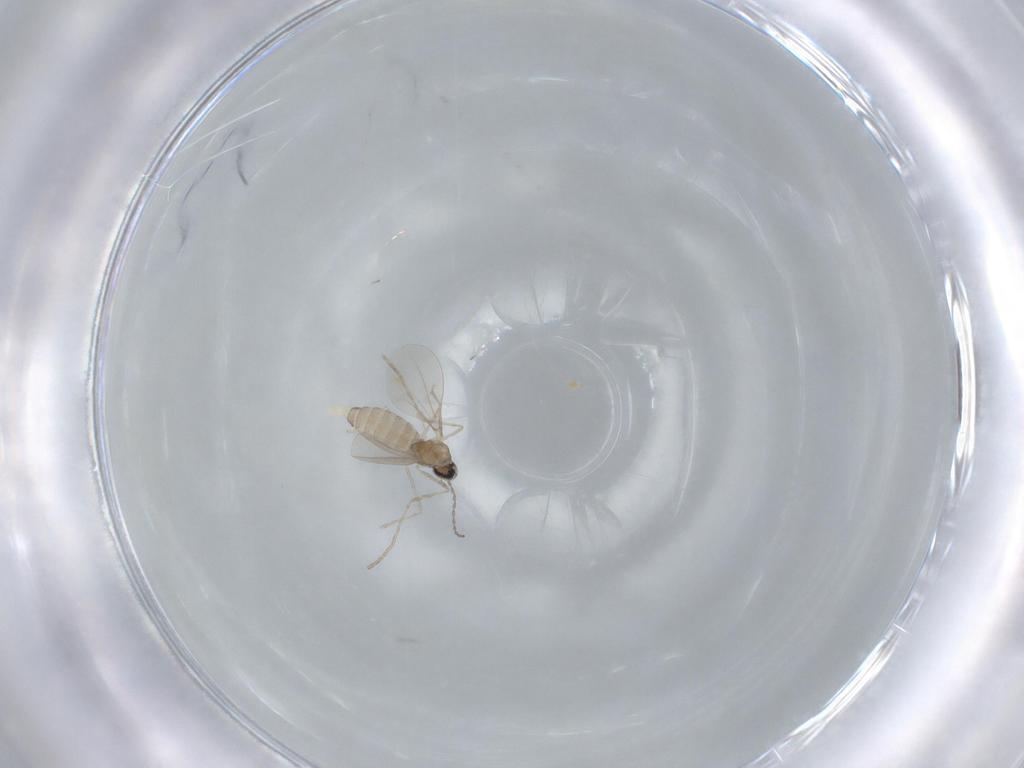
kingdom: Animalia
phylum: Arthropoda
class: Insecta
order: Diptera
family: Cecidomyiidae
